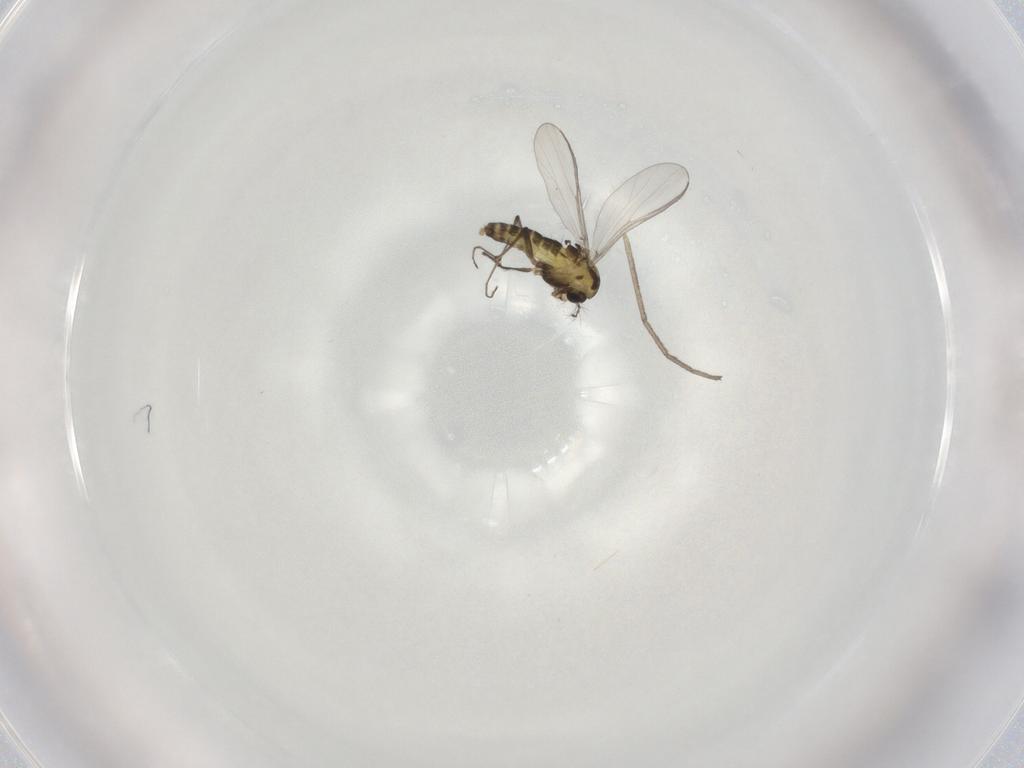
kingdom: Animalia
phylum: Arthropoda
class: Insecta
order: Diptera
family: Chironomidae
